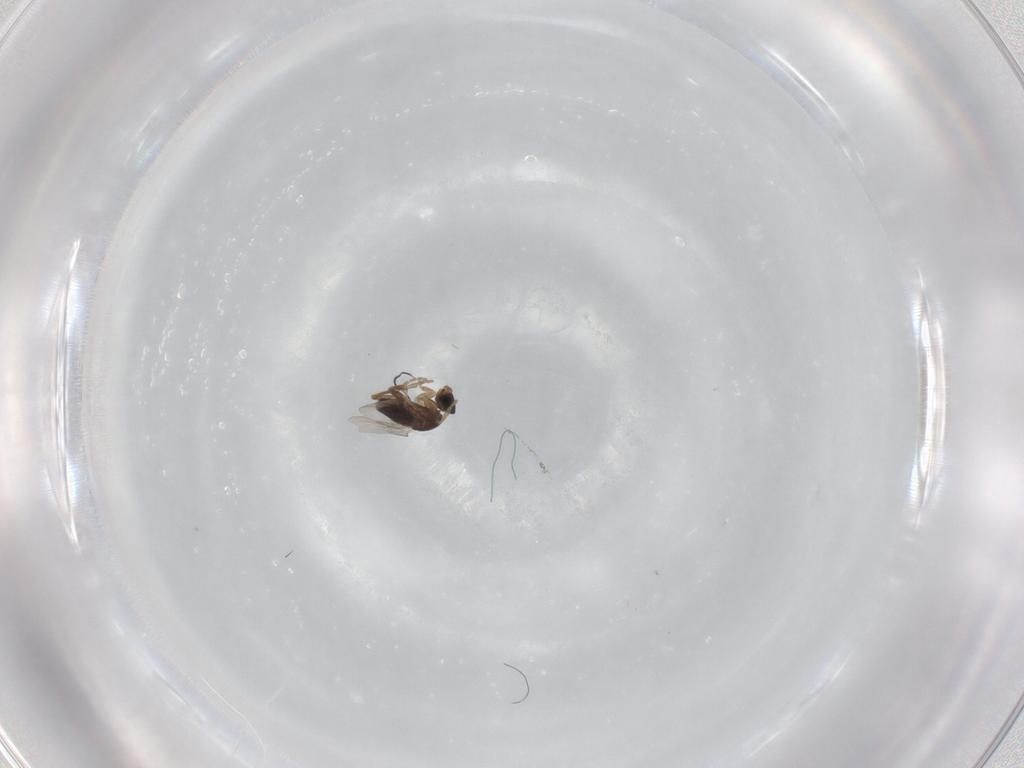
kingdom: Animalia
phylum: Arthropoda
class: Insecta
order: Diptera
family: Phoridae
